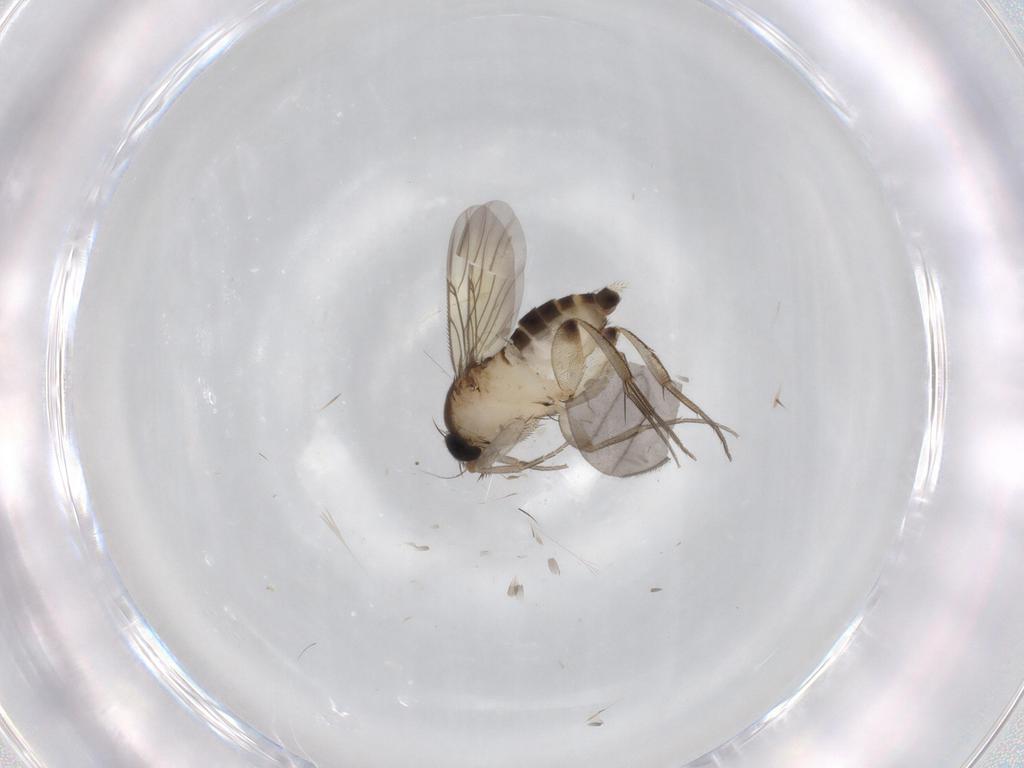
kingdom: Animalia
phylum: Arthropoda
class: Insecta
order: Diptera
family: Phoridae
